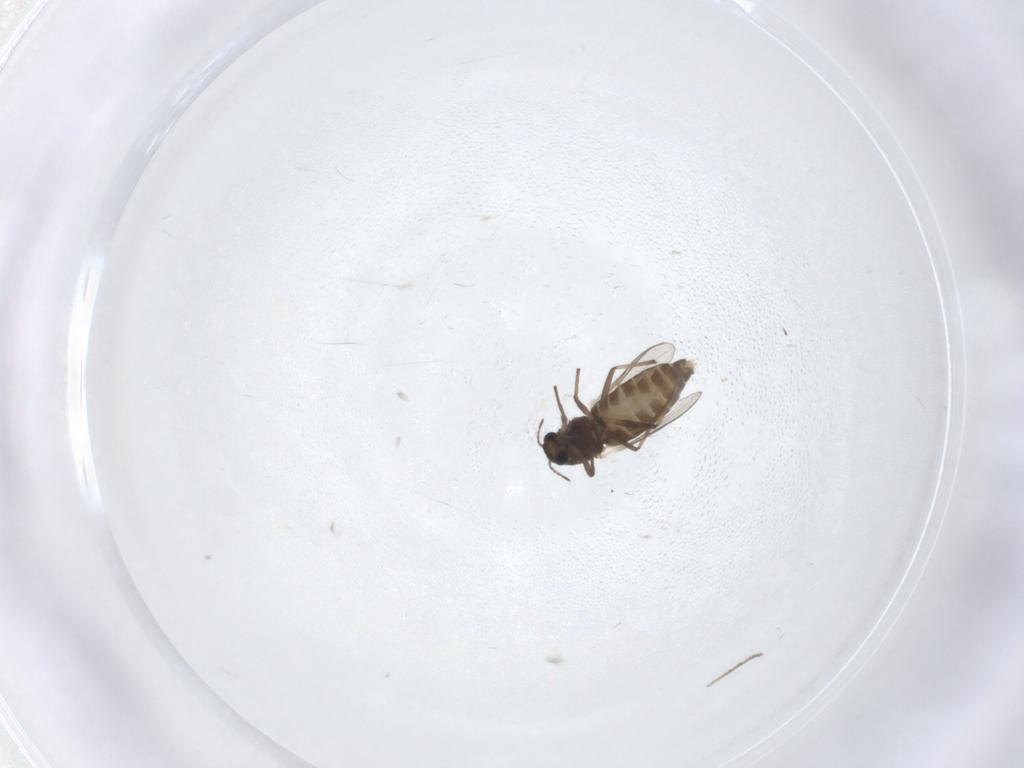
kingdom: Animalia
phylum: Arthropoda
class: Insecta
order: Diptera
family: Chironomidae
